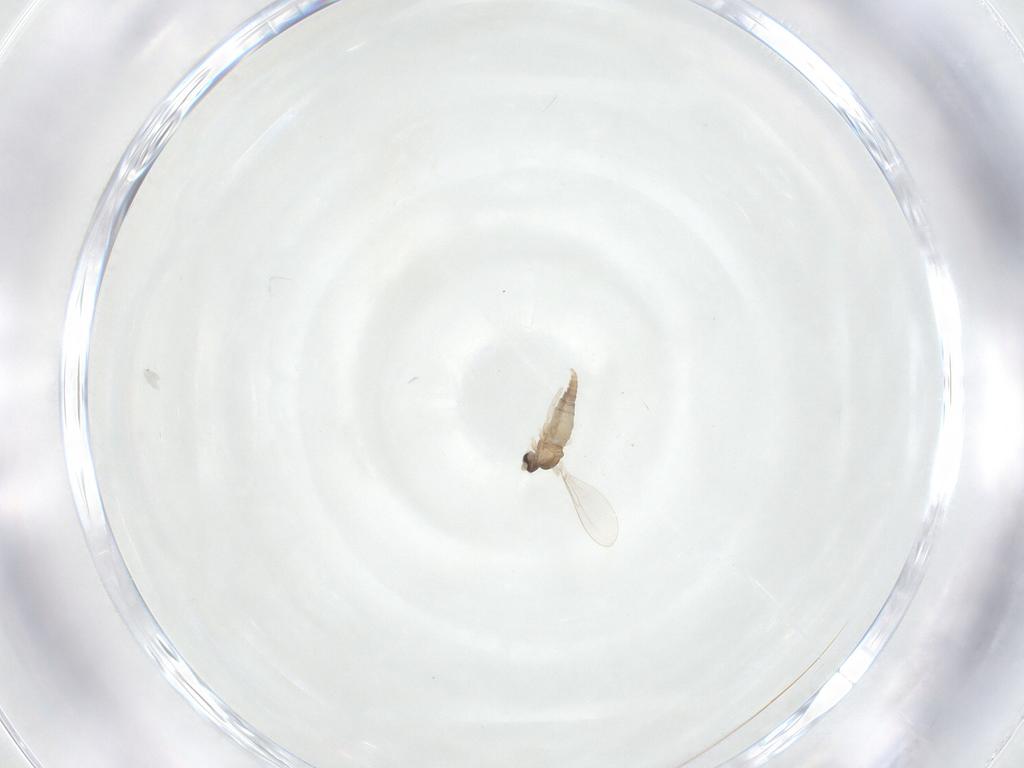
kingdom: Animalia
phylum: Arthropoda
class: Insecta
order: Diptera
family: Cecidomyiidae
